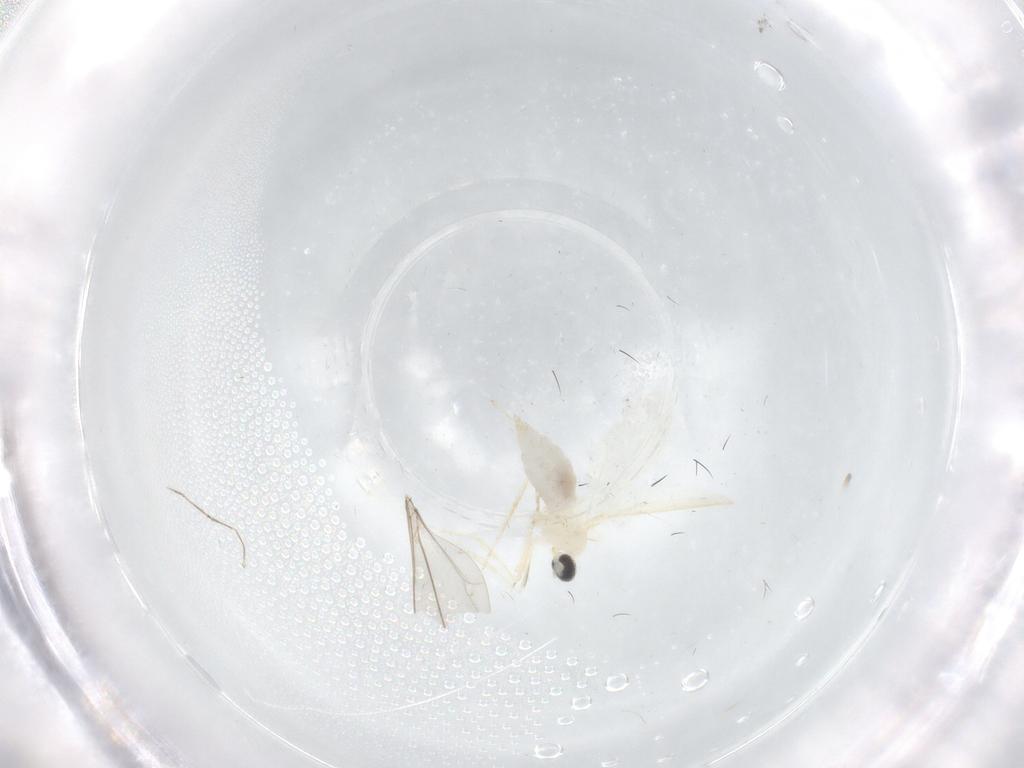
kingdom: Animalia
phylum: Arthropoda
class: Insecta
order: Diptera
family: Cecidomyiidae
